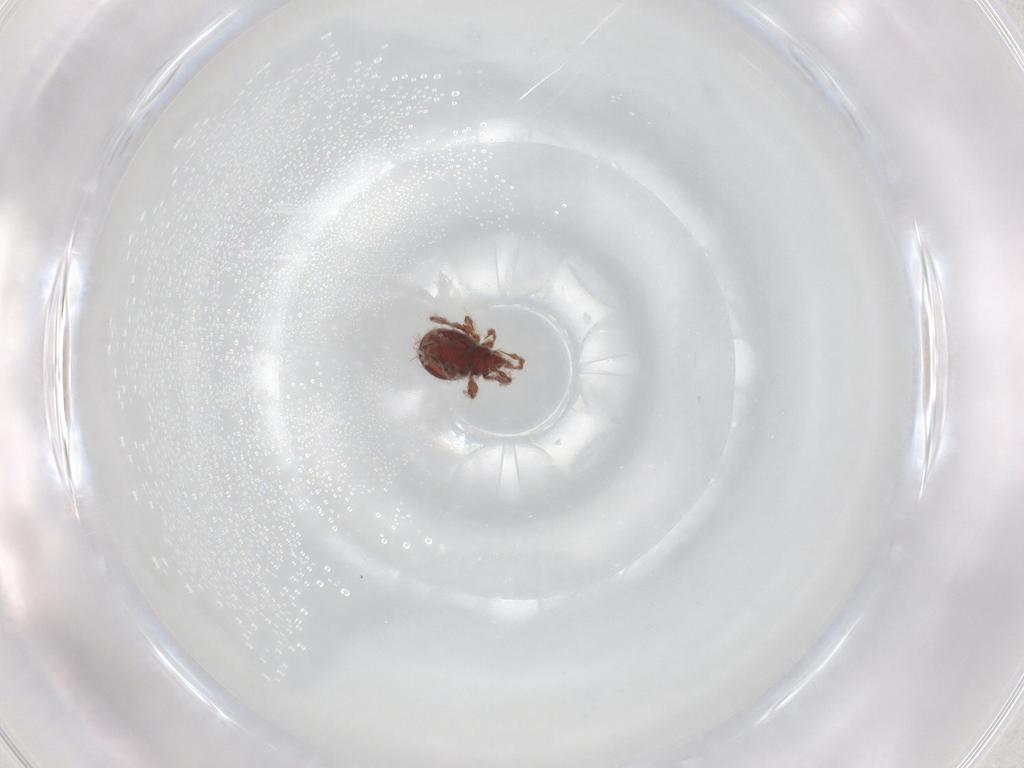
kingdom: Animalia
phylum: Arthropoda
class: Arachnida
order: Sarcoptiformes
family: Damaeidae
